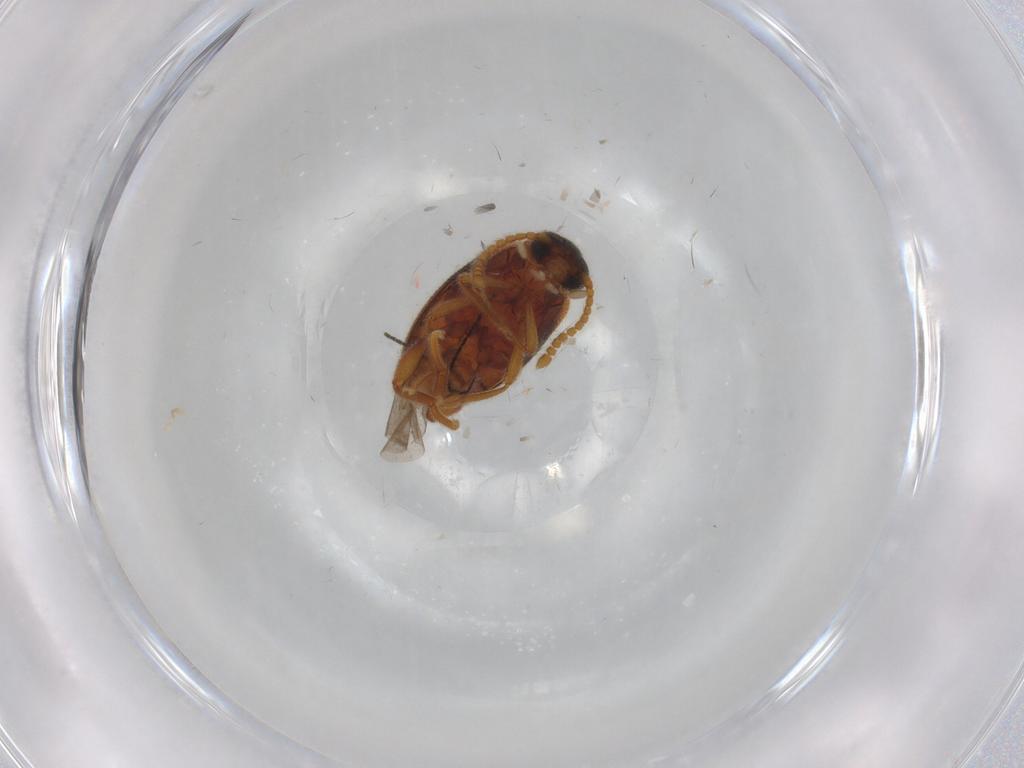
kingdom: Animalia
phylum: Arthropoda
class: Insecta
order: Coleoptera
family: Aderidae
